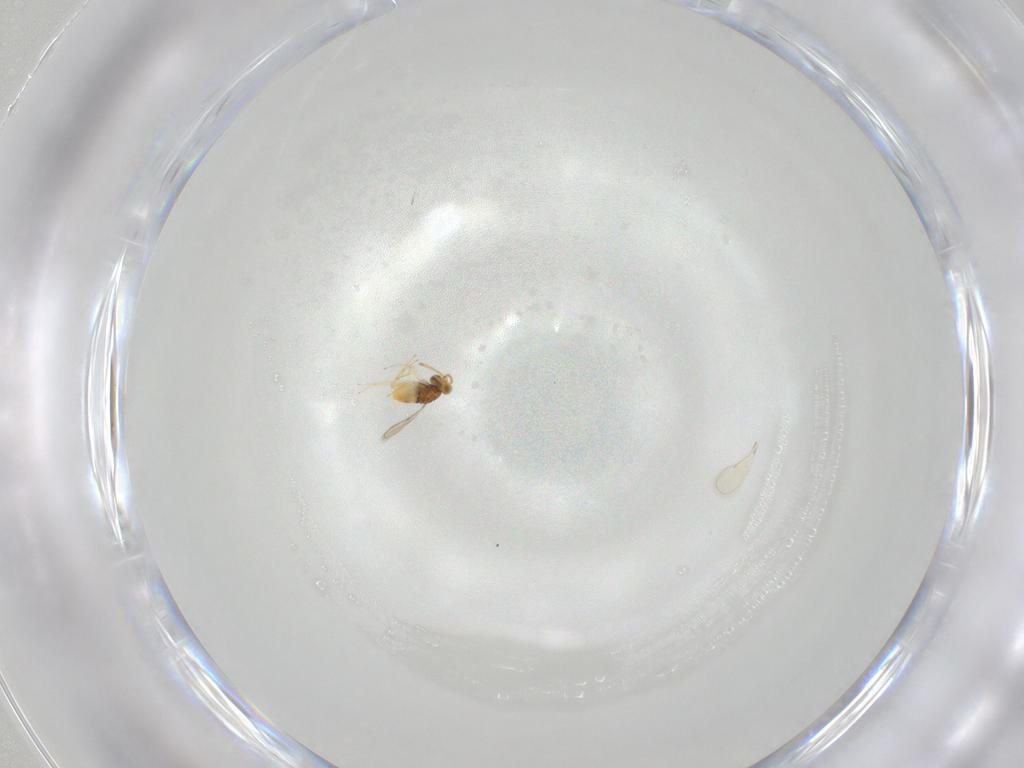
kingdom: Animalia
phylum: Arthropoda
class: Insecta
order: Hymenoptera
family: Aphelinidae
